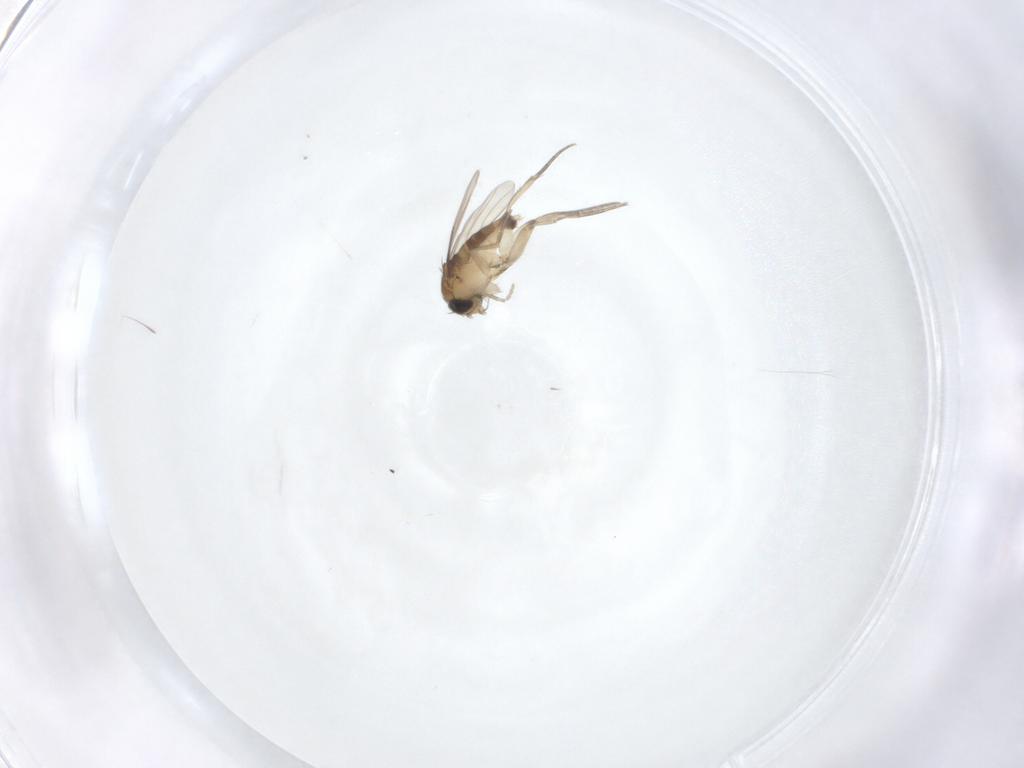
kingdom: Animalia
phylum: Arthropoda
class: Insecta
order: Diptera
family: Phoridae
